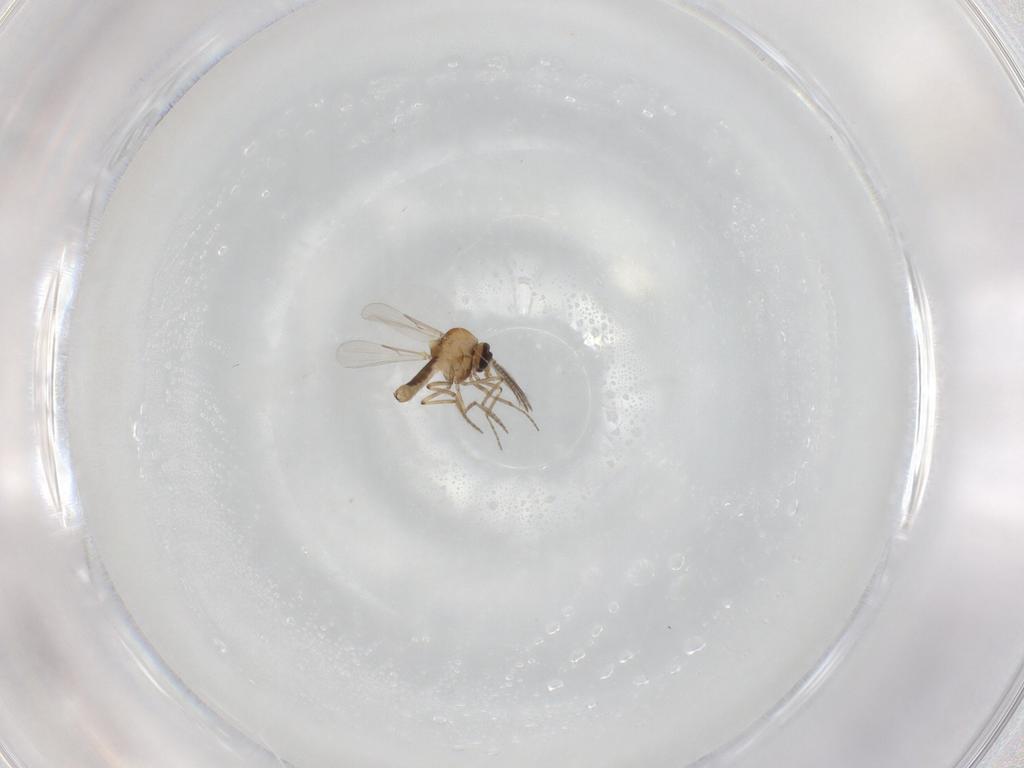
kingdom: Animalia
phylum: Arthropoda
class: Insecta
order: Diptera
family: Ceratopogonidae
